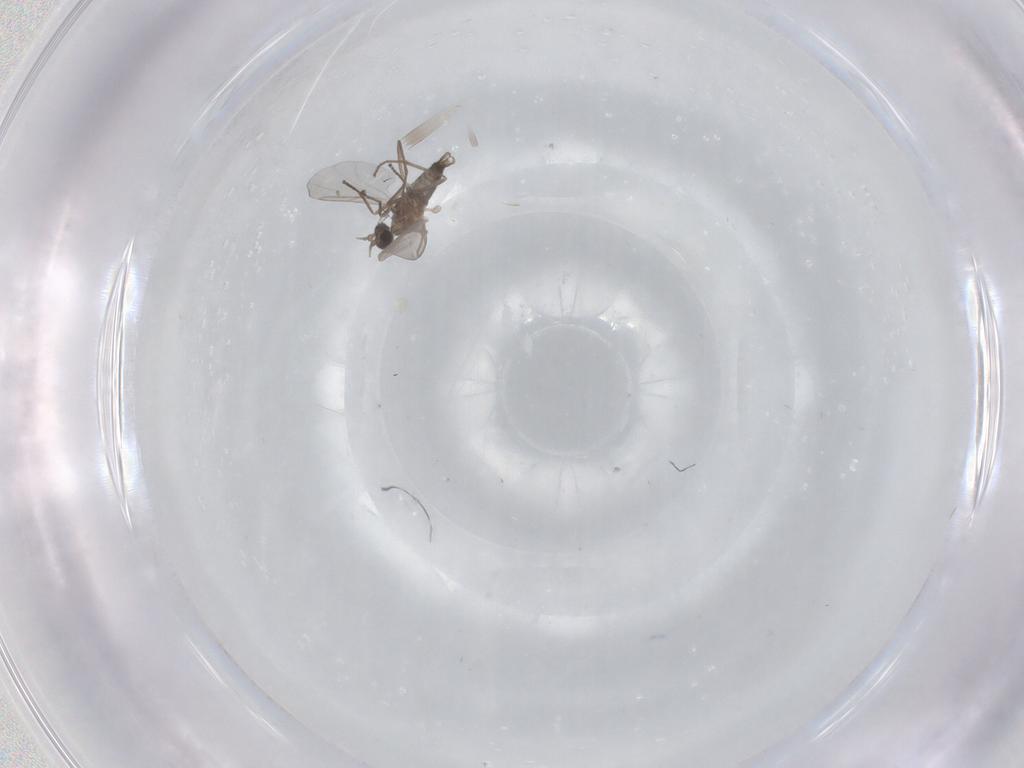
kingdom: Animalia
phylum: Arthropoda
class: Insecta
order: Diptera
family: Cecidomyiidae
